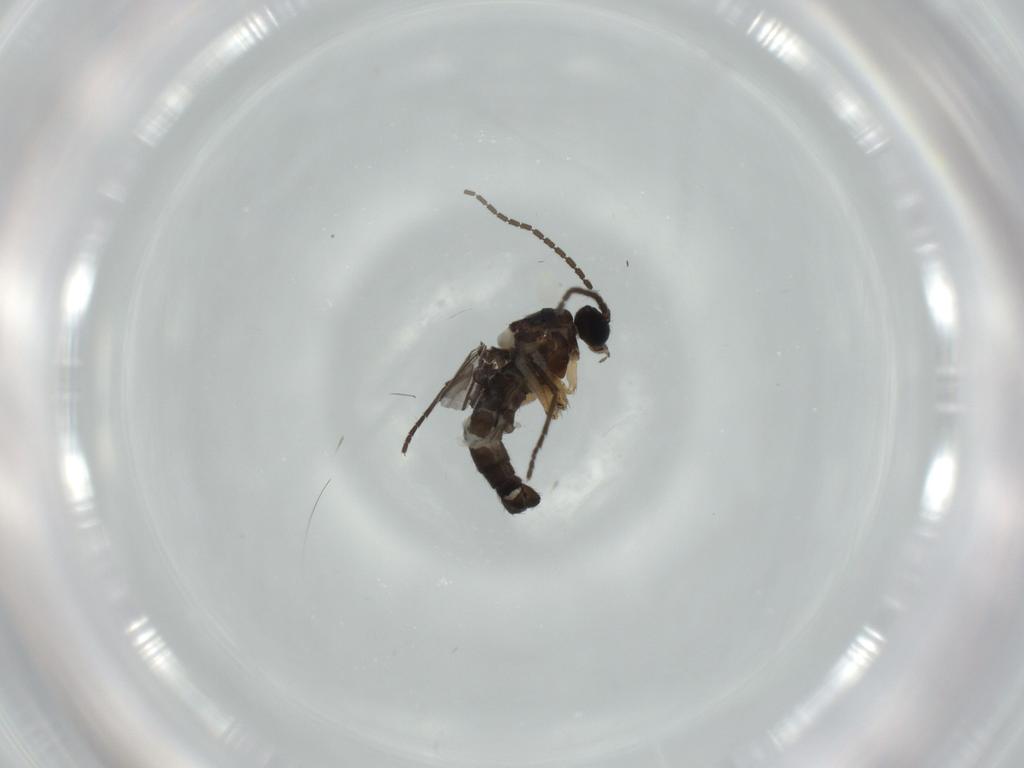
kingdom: Animalia
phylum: Arthropoda
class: Insecta
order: Diptera
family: Sciaridae
